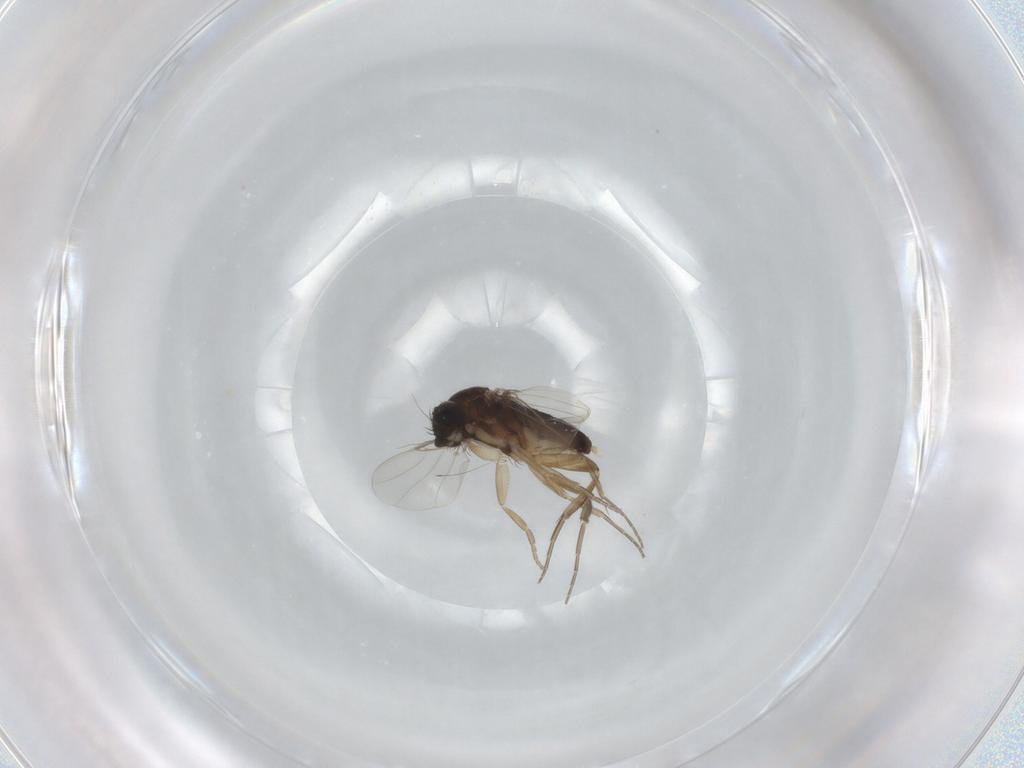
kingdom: Animalia
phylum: Arthropoda
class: Insecta
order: Diptera
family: Phoridae
